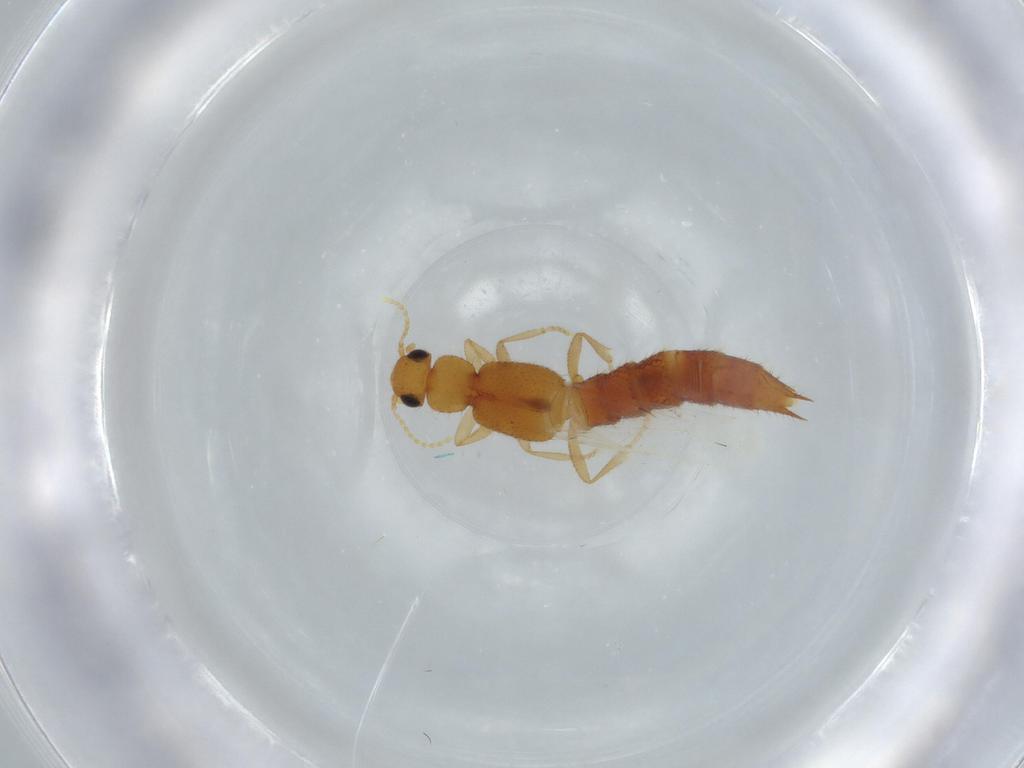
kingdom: Animalia
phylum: Arthropoda
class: Insecta
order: Coleoptera
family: Staphylinidae
